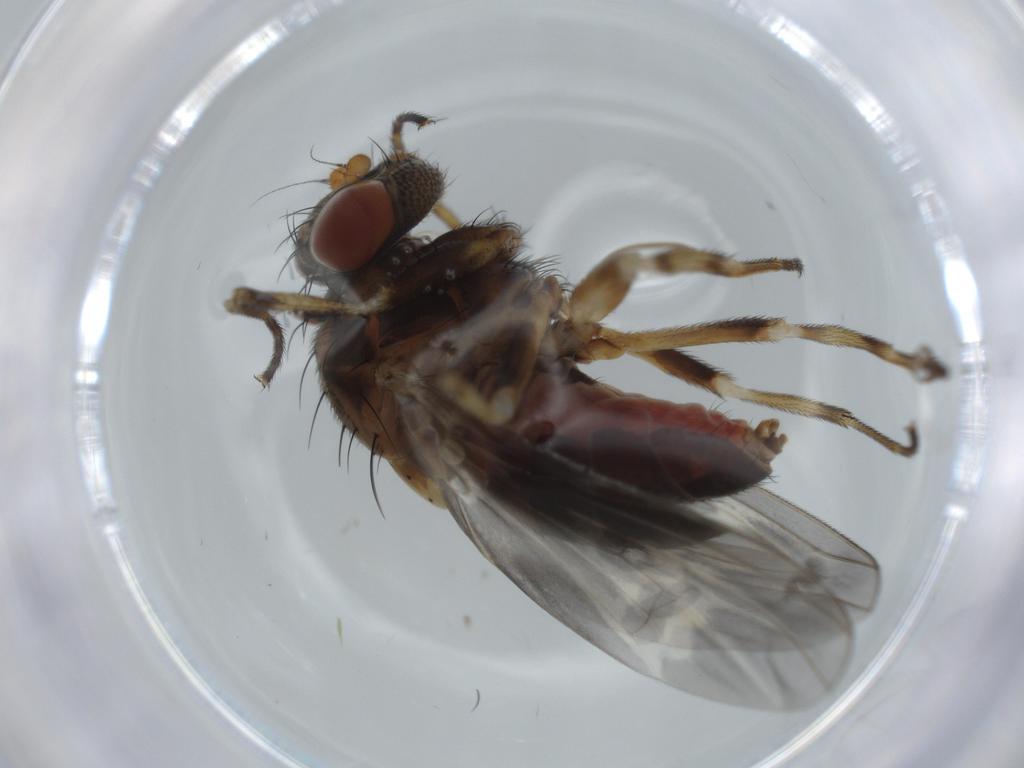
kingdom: Animalia
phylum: Arthropoda
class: Insecta
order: Diptera
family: Odiniidae
